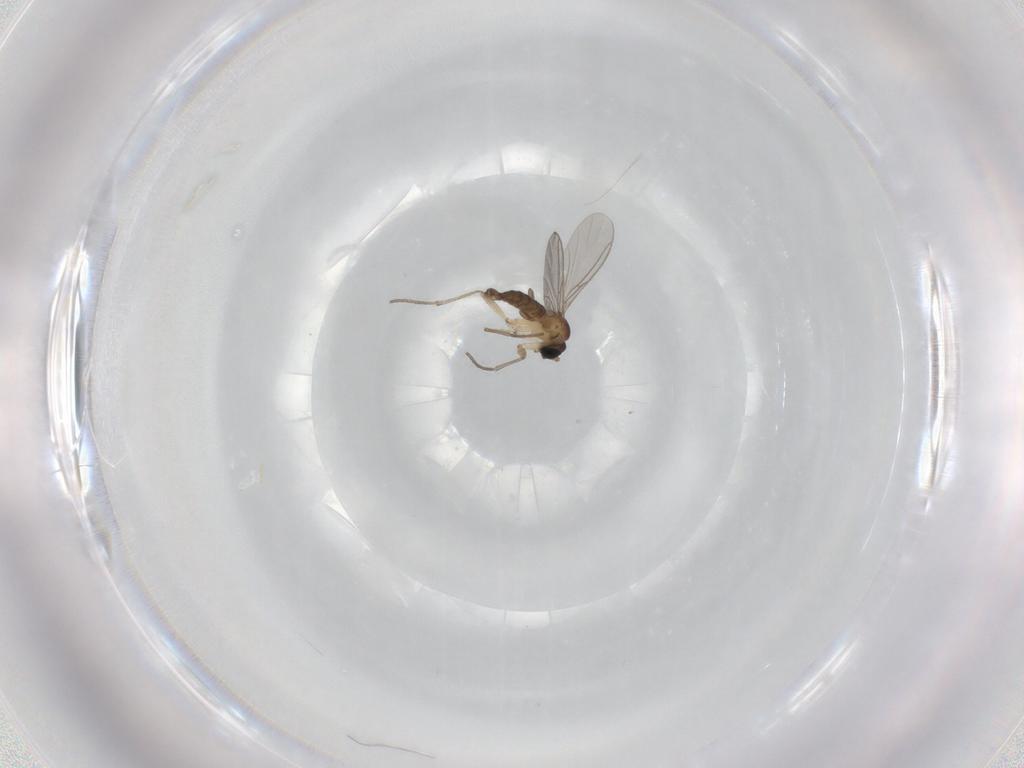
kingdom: Animalia
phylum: Arthropoda
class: Insecta
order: Diptera
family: Sciaridae
